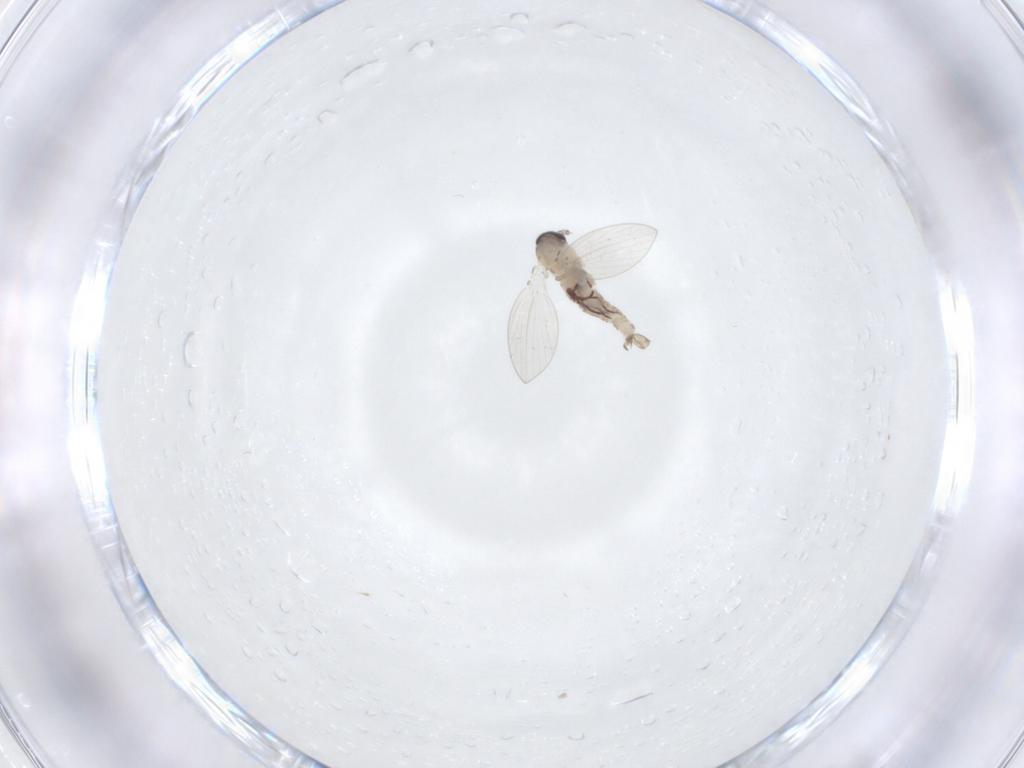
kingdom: Animalia
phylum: Arthropoda
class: Insecta
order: Diptera
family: Psychodidae
